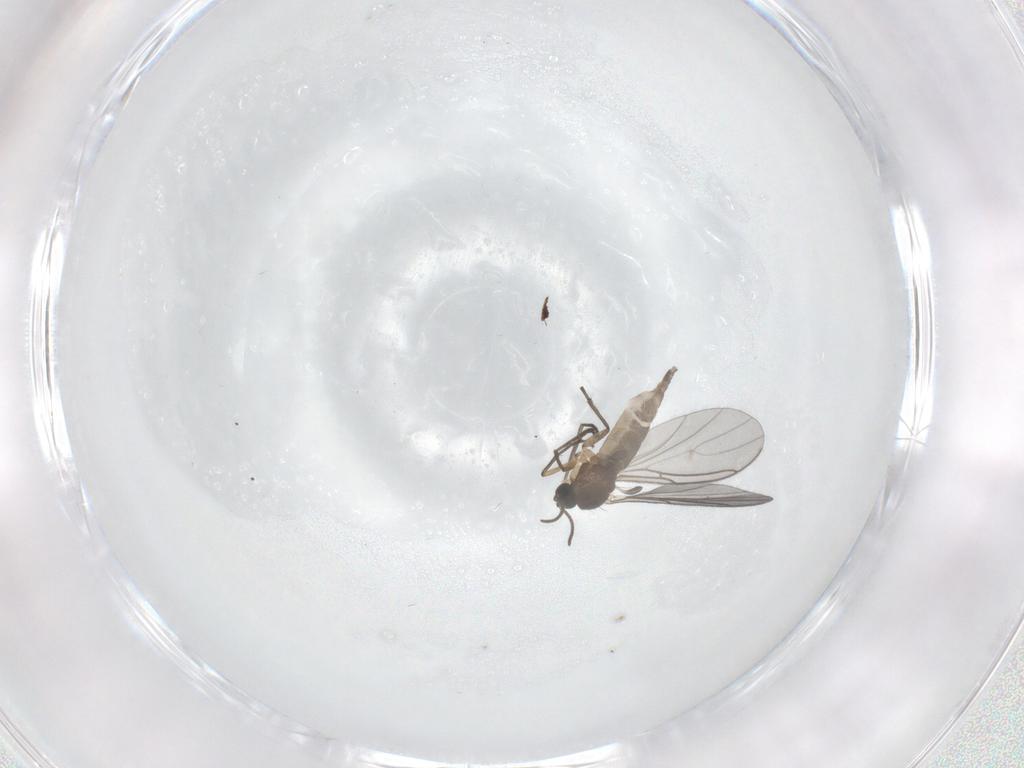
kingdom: Animalia
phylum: Arthropoda
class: Insecta
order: Diptera
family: Sciaridae
